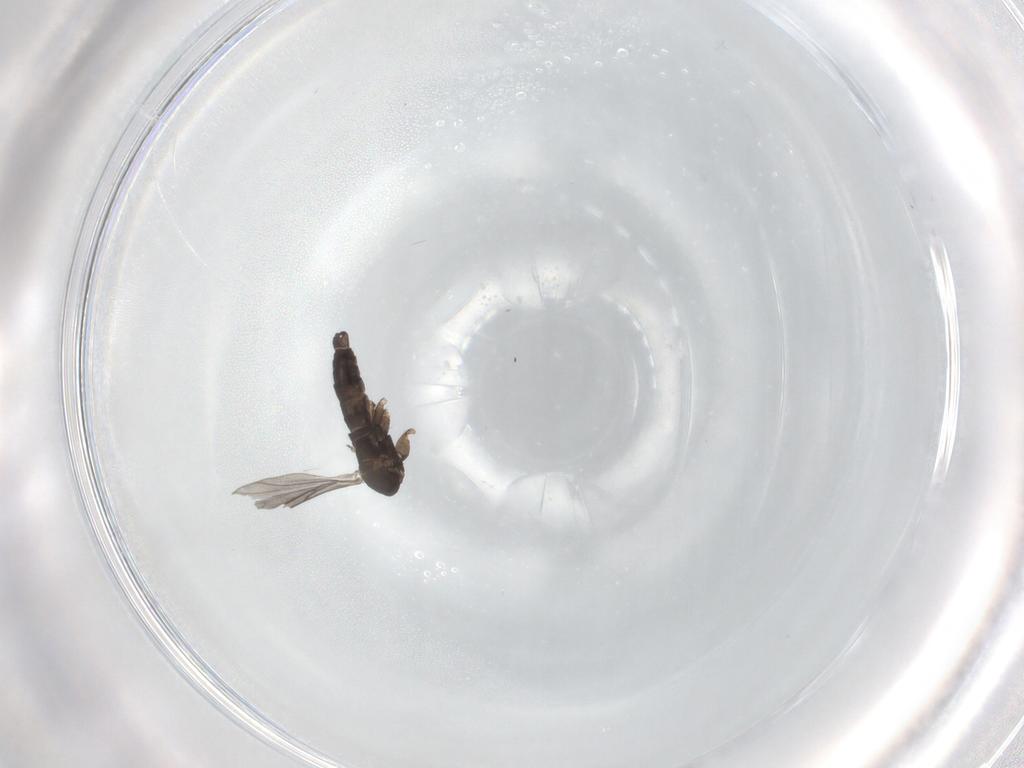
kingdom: Animalia
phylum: Arthropoda
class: Insecta
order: Diptera
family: Sciaridae
